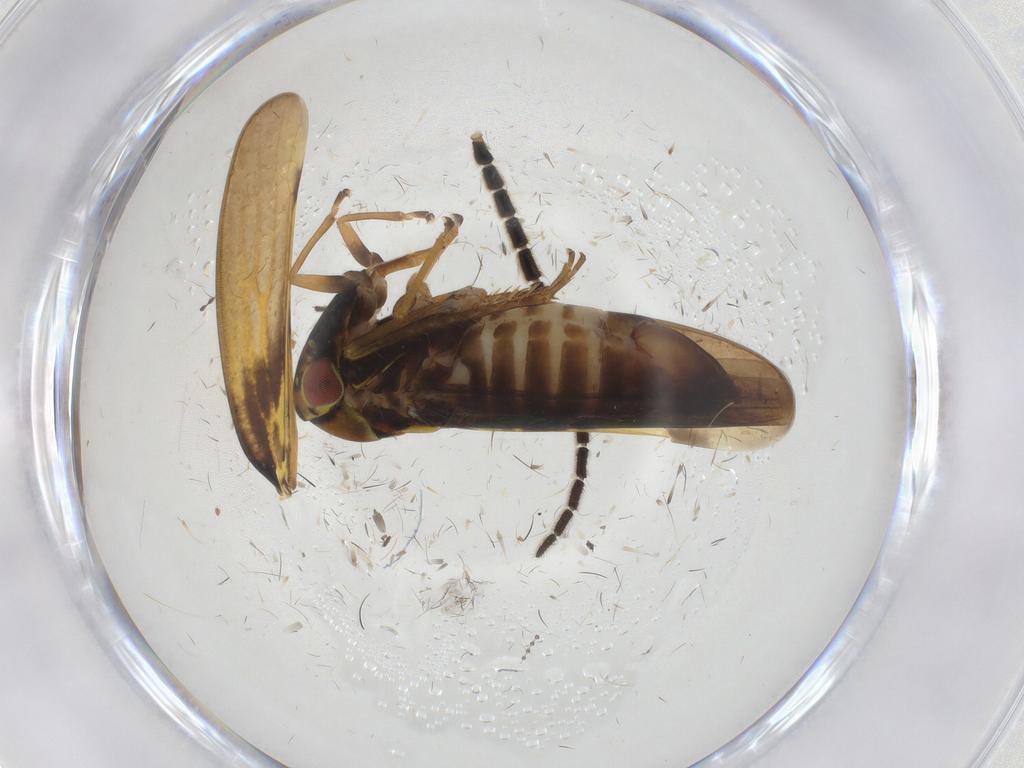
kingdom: Animalia
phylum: Arthropoda
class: Insecta
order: Hemiptera
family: Cicadellidae
